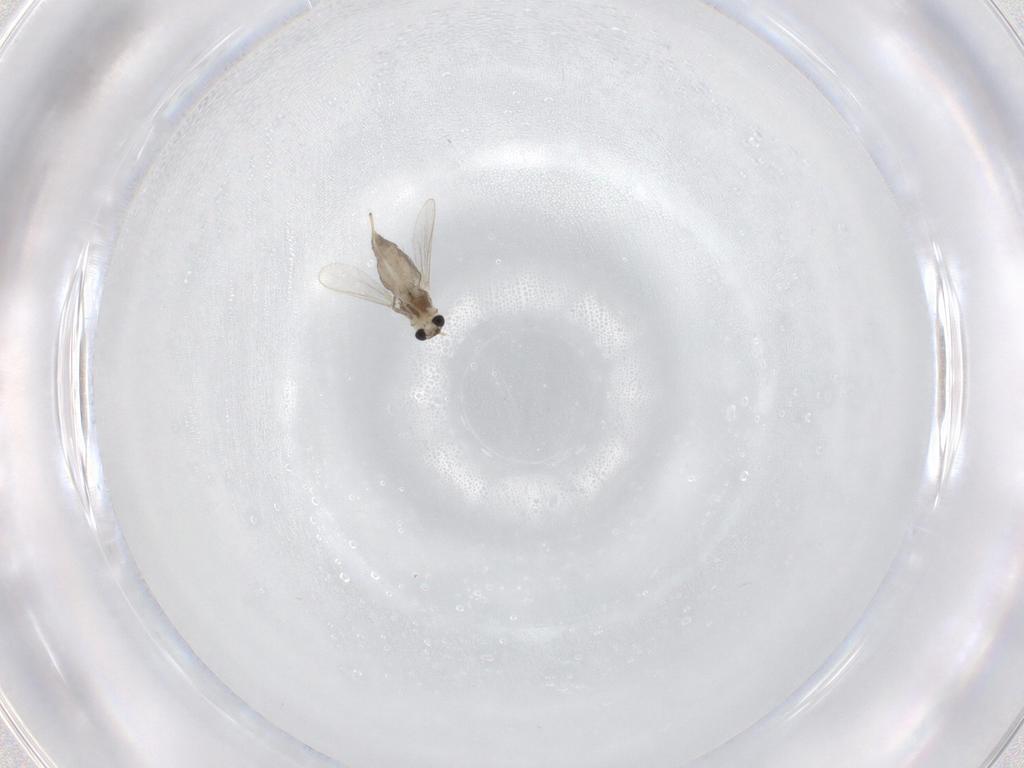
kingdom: Animalia
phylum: Arthropoda
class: Insecta
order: Diptera
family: Chironomidae
